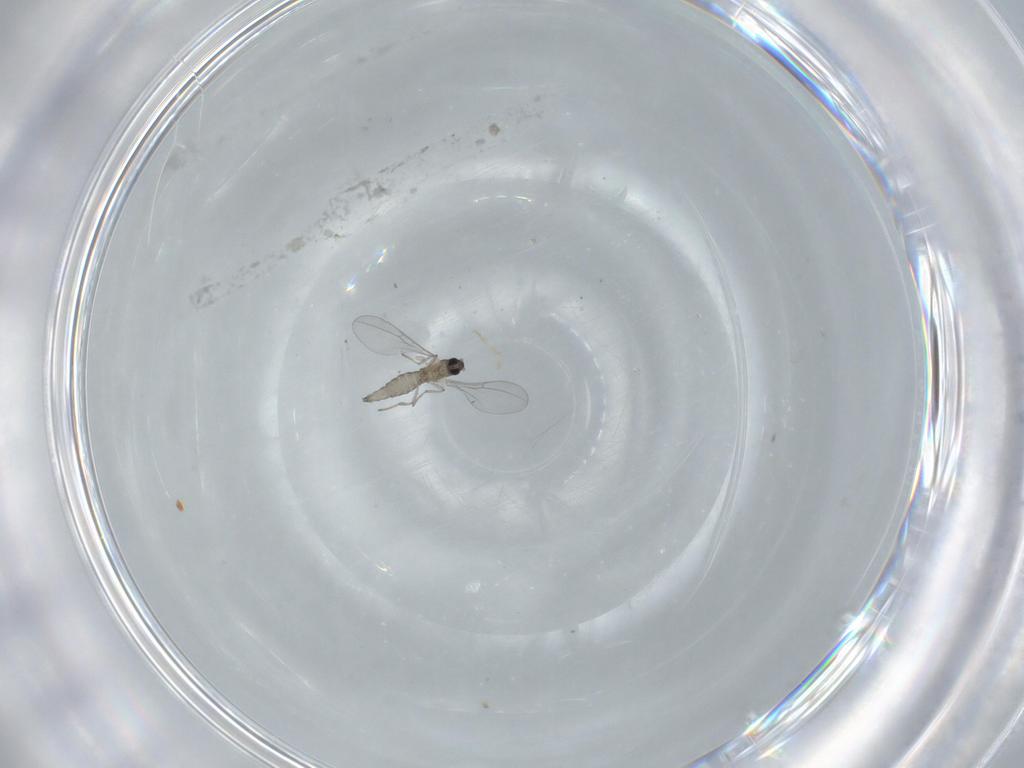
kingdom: Animalia
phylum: Arthropoda
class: Insecta
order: Diptera
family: Cecidomyiidae
